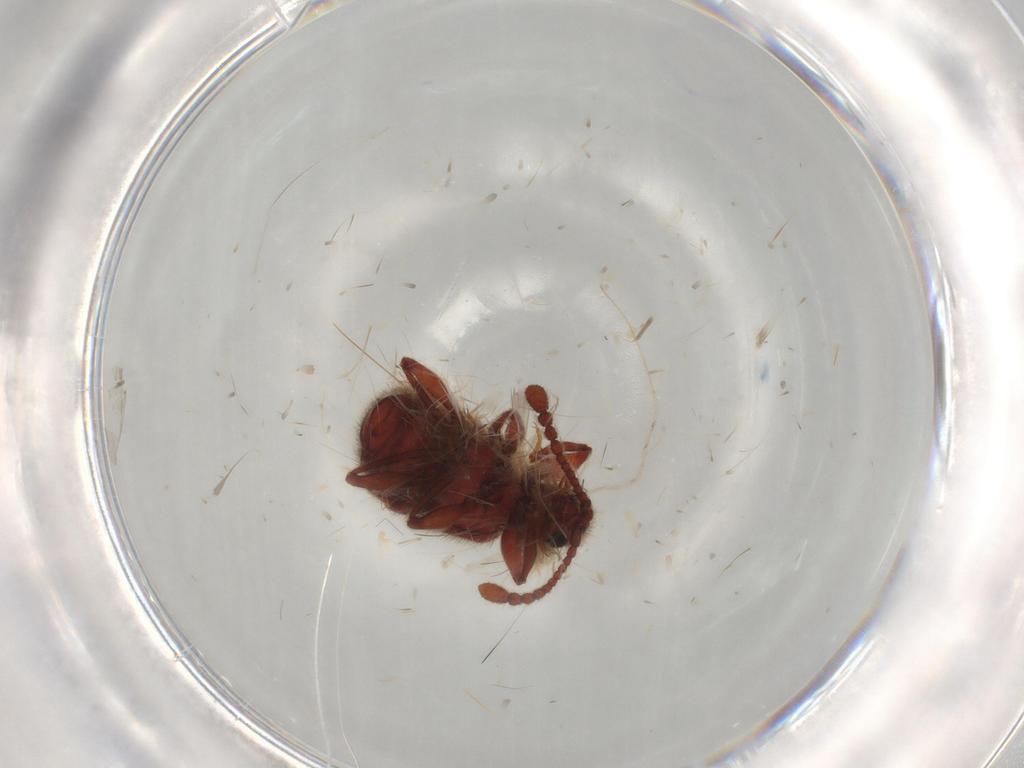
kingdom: Animalia
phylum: Arthropoda
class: Insecta
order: Coleoptera
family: Staphylinidae
